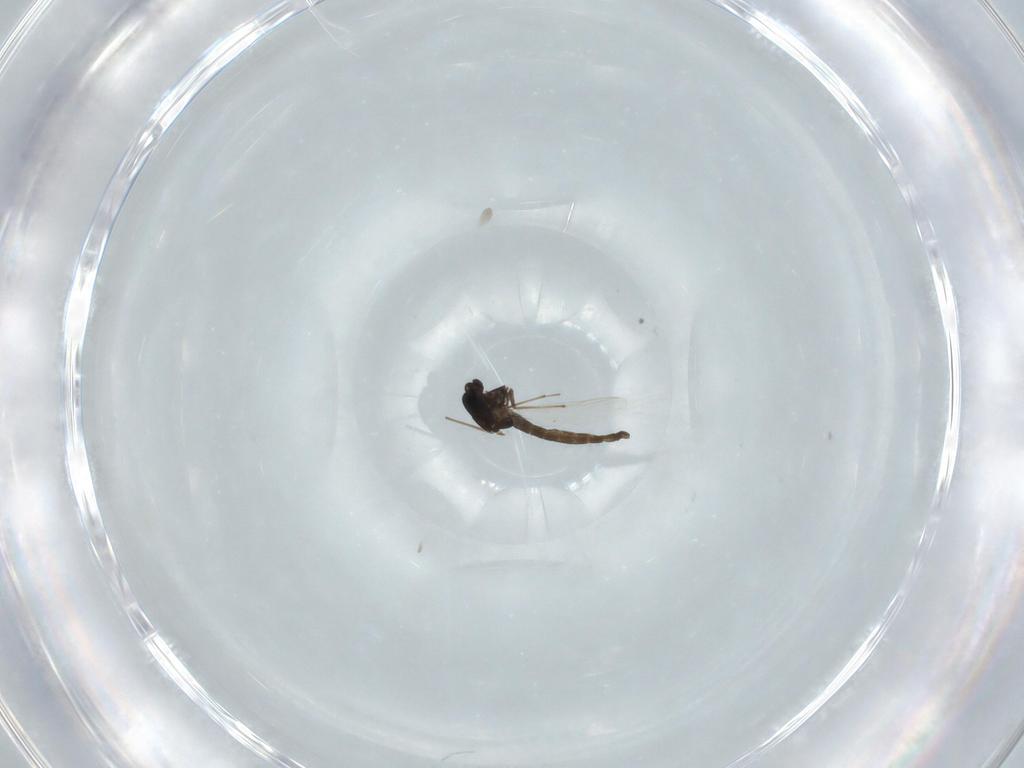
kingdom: Animalia
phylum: Arthropoda
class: Insecta
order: Diptera
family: Chironomidae
